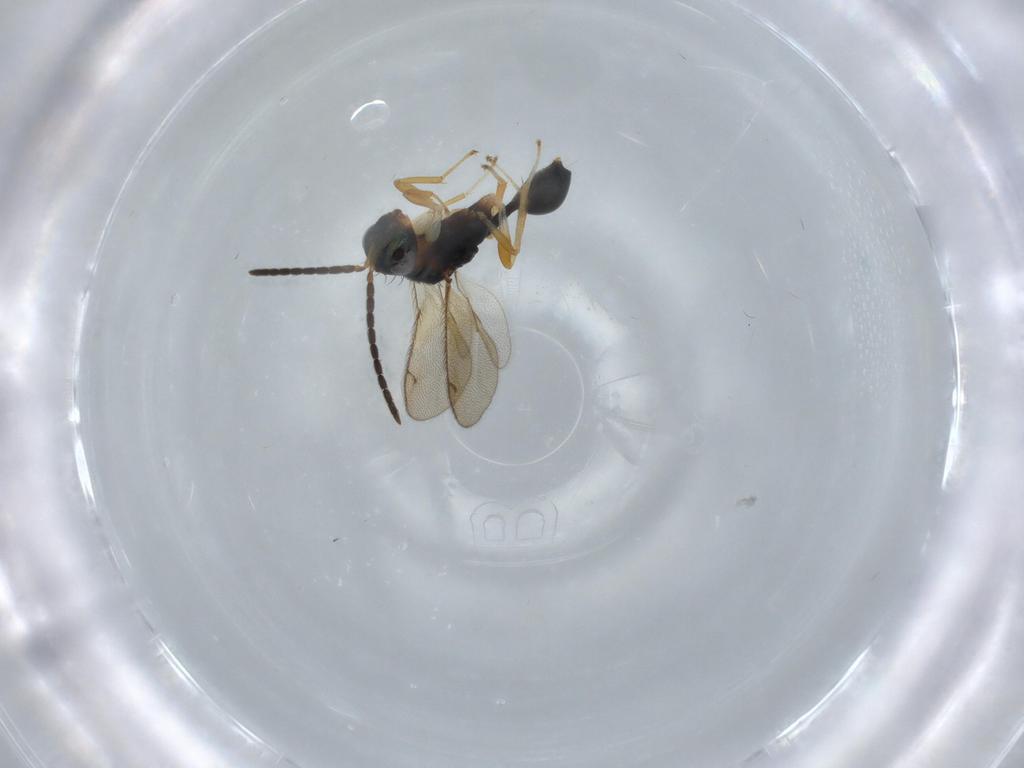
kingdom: Animalia
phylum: Arthropoda
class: Insecta
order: Hymenoptera
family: Diparidae
